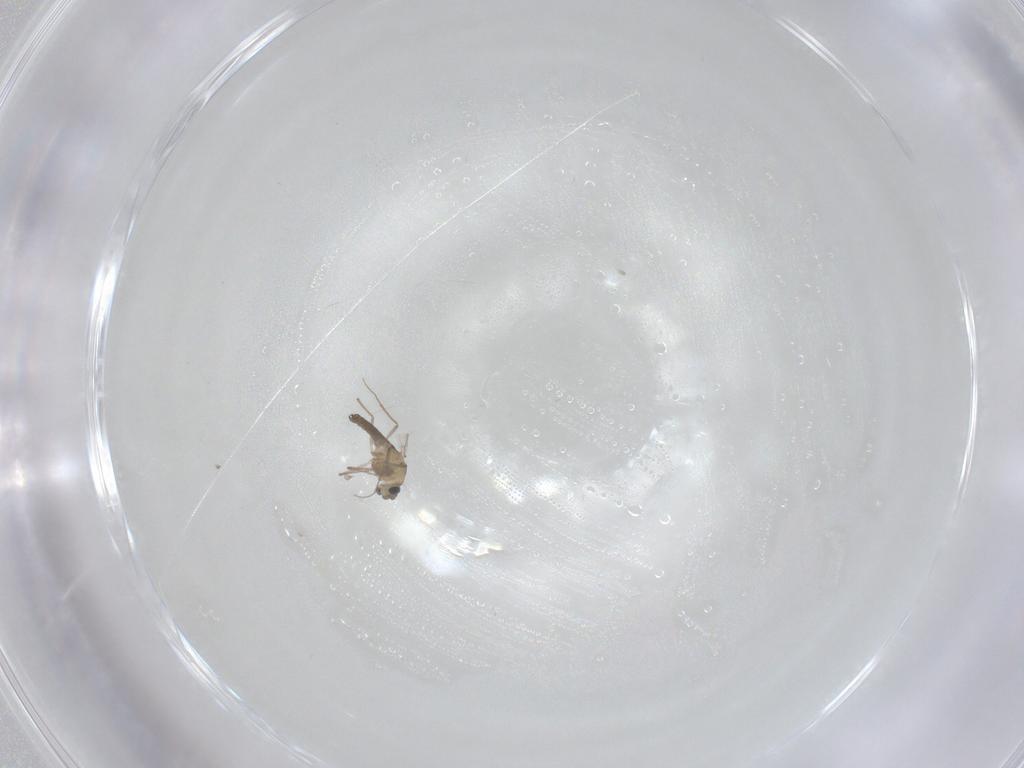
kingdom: Animalia
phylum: Arthropoda
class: Insecta
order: Diptera
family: Chironomidae
